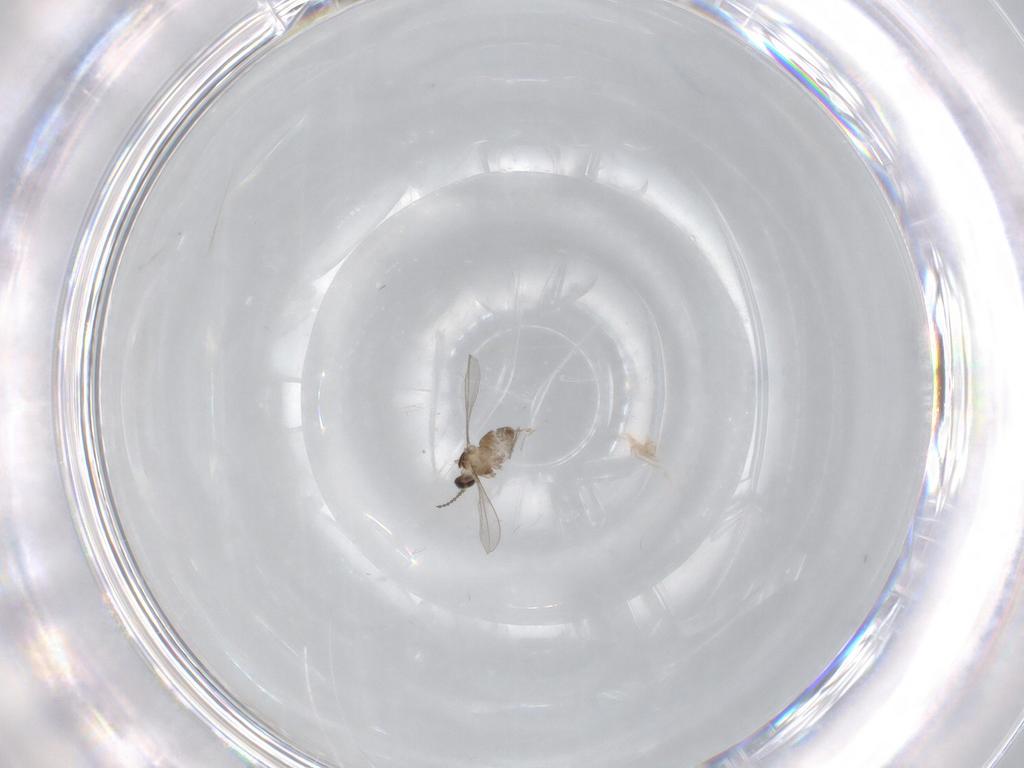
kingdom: Animalia
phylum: Arthropoda
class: Insecta
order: Diptera
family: Cecidomyiidae
